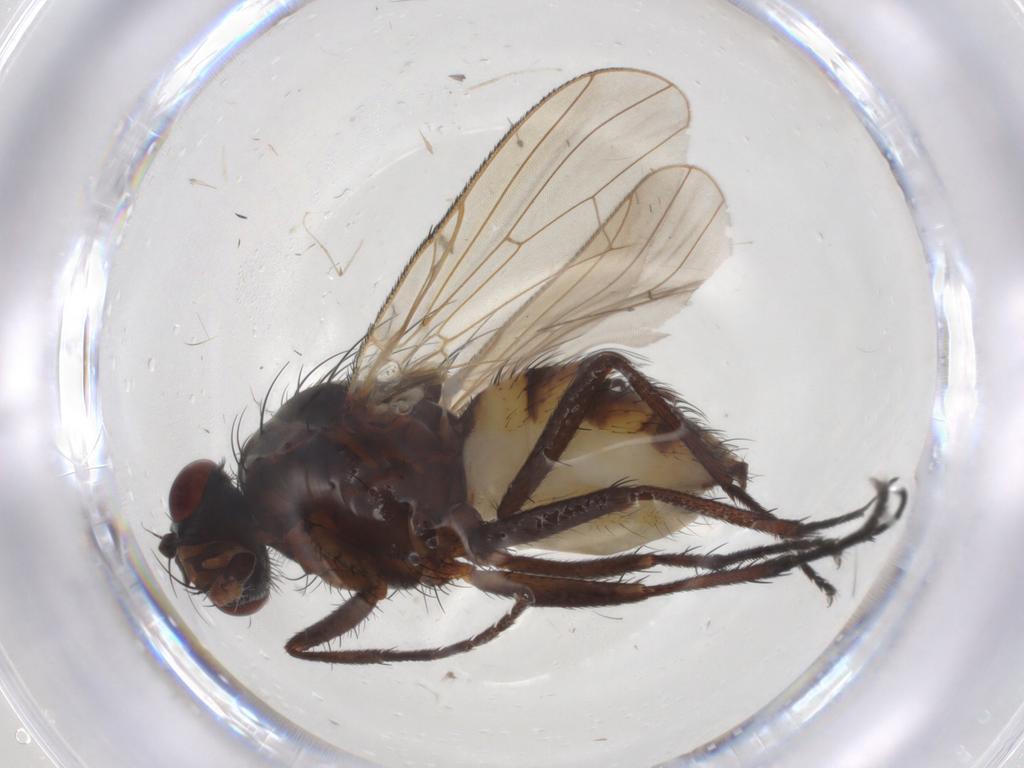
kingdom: Animalia
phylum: Arthropoda
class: Insecta
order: Diptera
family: Anthomyiidae
